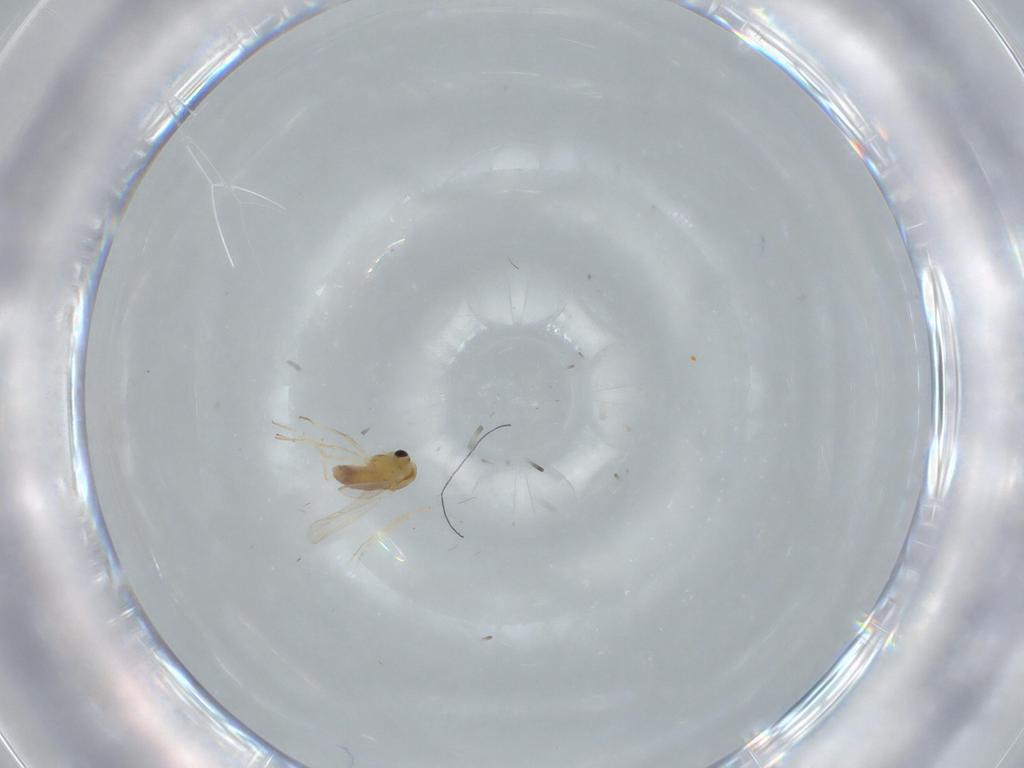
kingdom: Animalia
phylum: Arthropoda
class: Insecta
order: Diptera
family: Chironomidae
